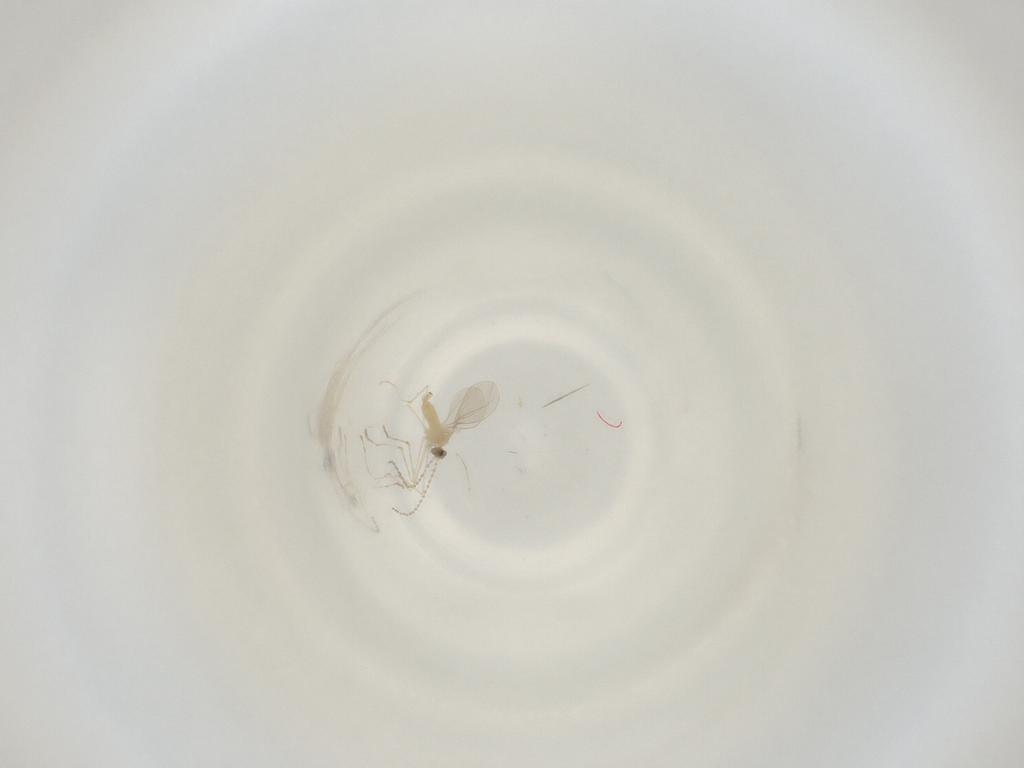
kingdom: Animalia
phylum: Arthropoda
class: Insecta
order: Diptera
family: Cecidomyiidae
